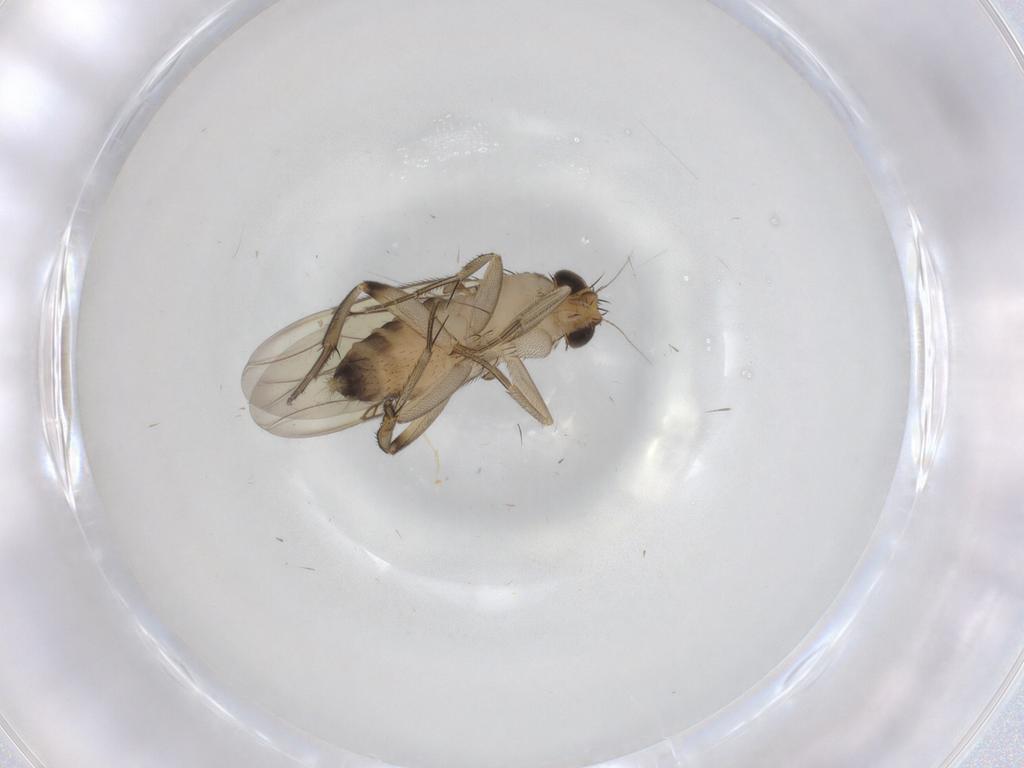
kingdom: Animalia
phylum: Arthropoda
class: Insecta
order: Diptera
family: Phoridae
